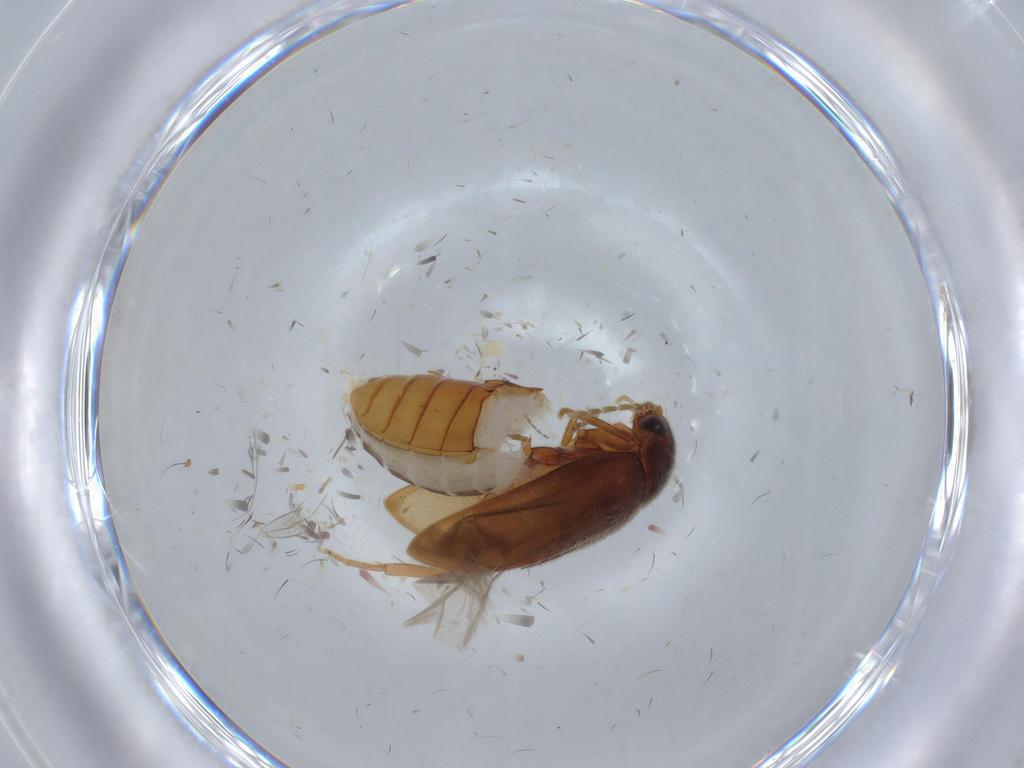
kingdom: Animalia
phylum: Arthropoda
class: Insecta
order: Coleoptera
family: Scirtidae
